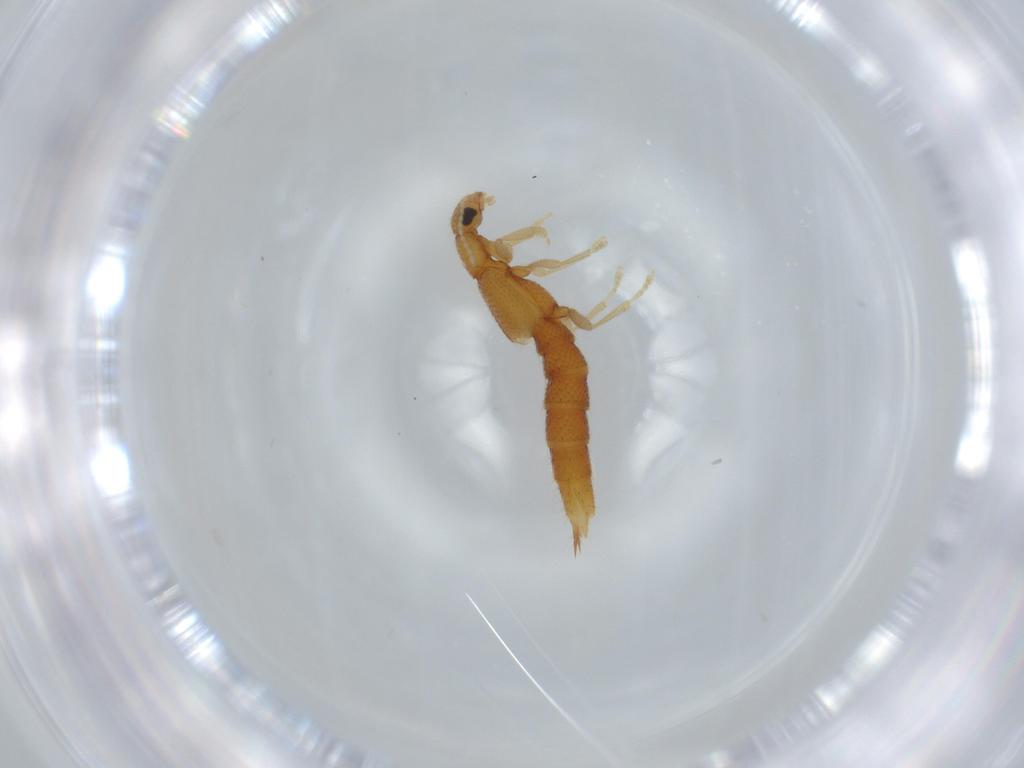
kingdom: Animalia
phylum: Arthropoda
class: Insecta
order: Coleoptera
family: Staphylinidae
